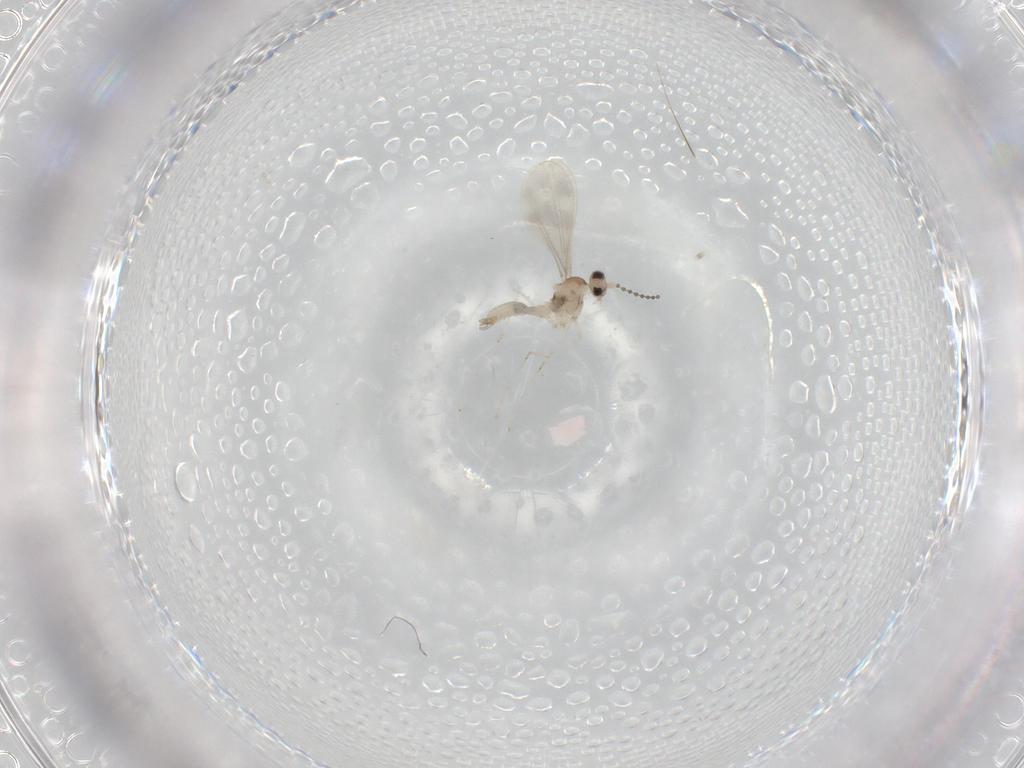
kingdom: Animalia
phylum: Arthropoda
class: Insecta
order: Diptera
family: Cecidomyiidae
